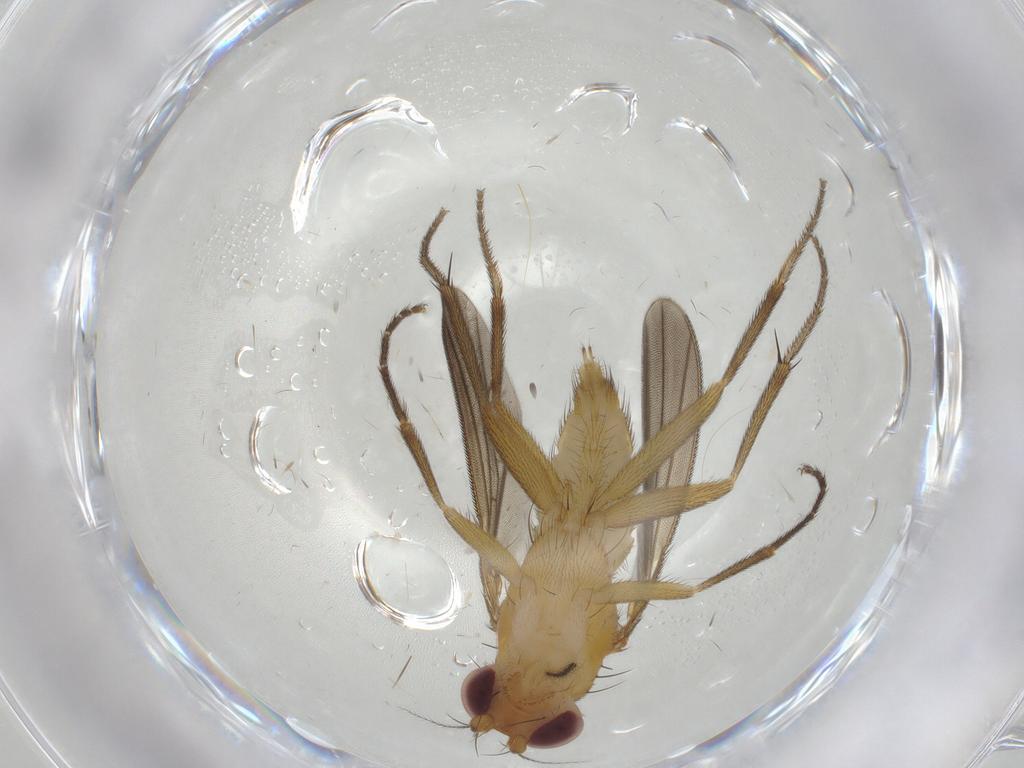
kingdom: Animalia
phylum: Arthropoda
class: Insecta
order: Diptera
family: Clusiidae
